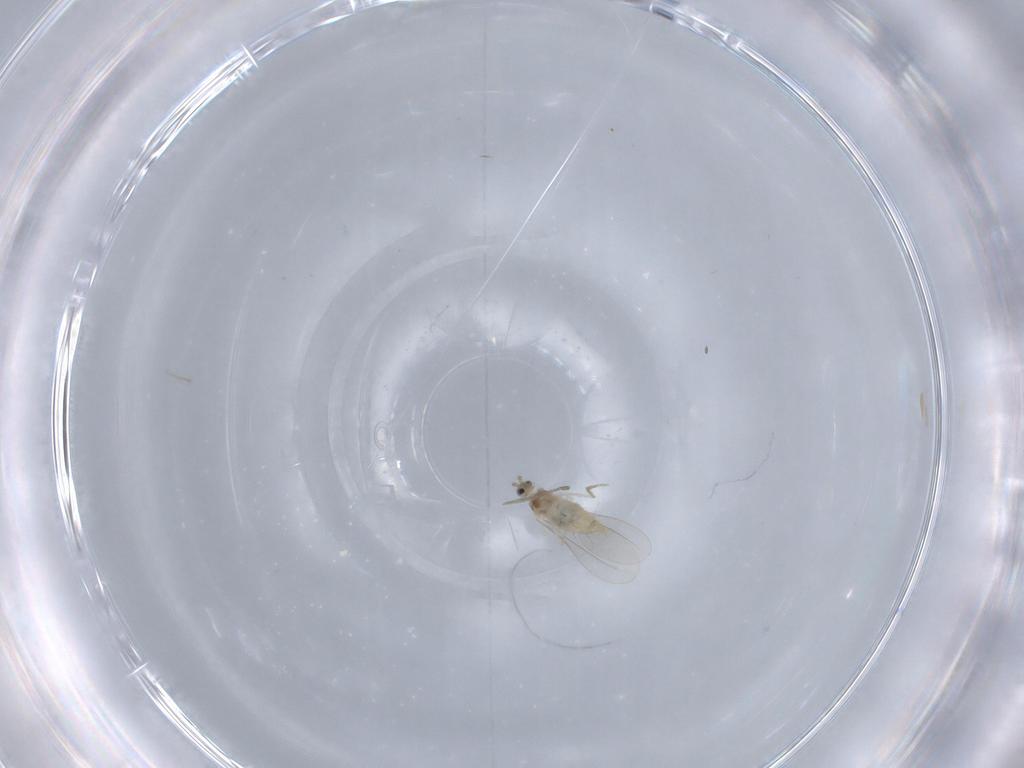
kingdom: Animalia
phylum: Arthropoda
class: Insecta
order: Diptera
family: Cecidomyiidae
